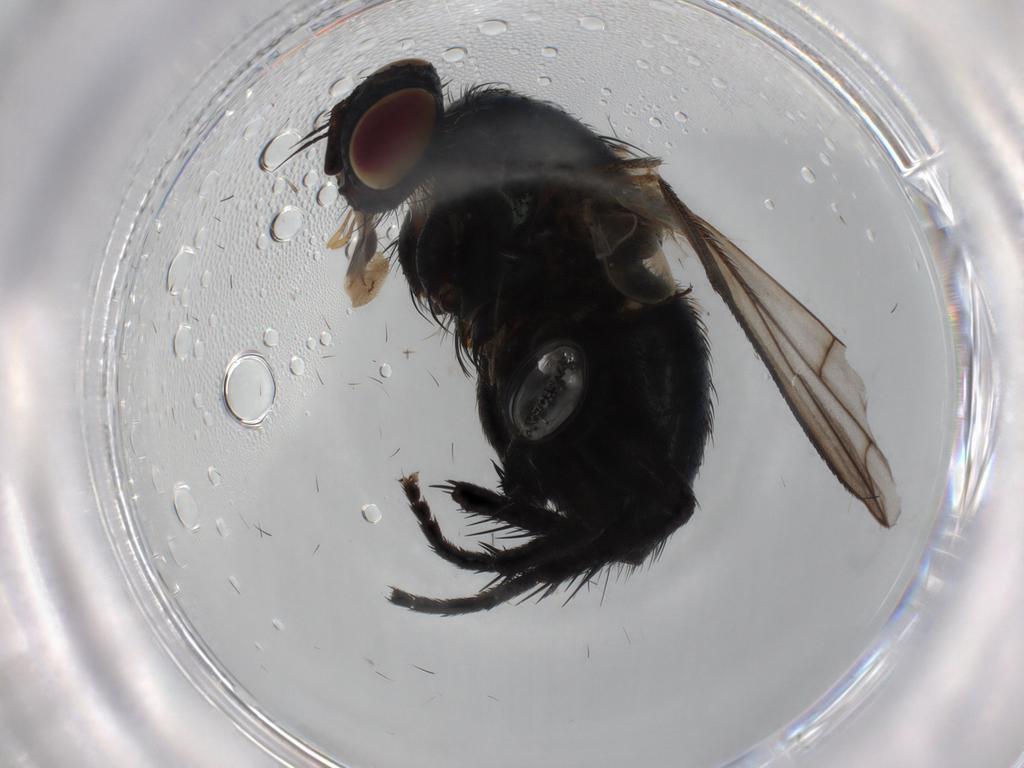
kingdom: Animalia
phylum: Arthropoda
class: Insecta
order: Diptera
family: Tachinidae
